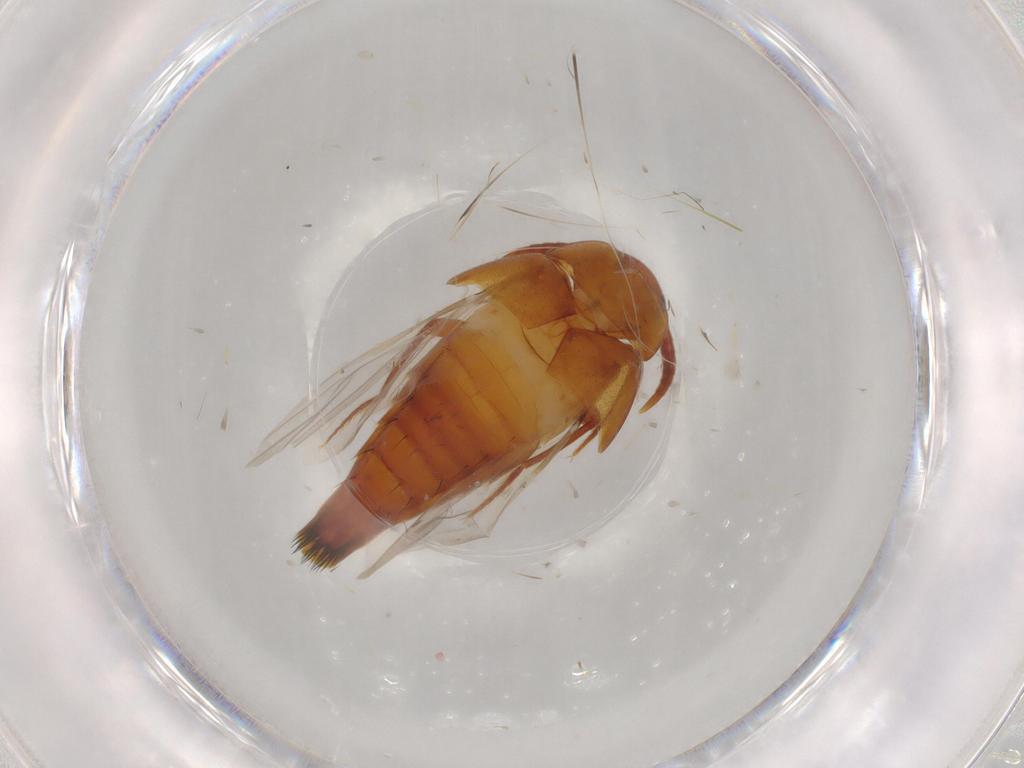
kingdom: Animalia
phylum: Arthropoda
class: Insecta
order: Coleoptera
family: Staphylinidae
